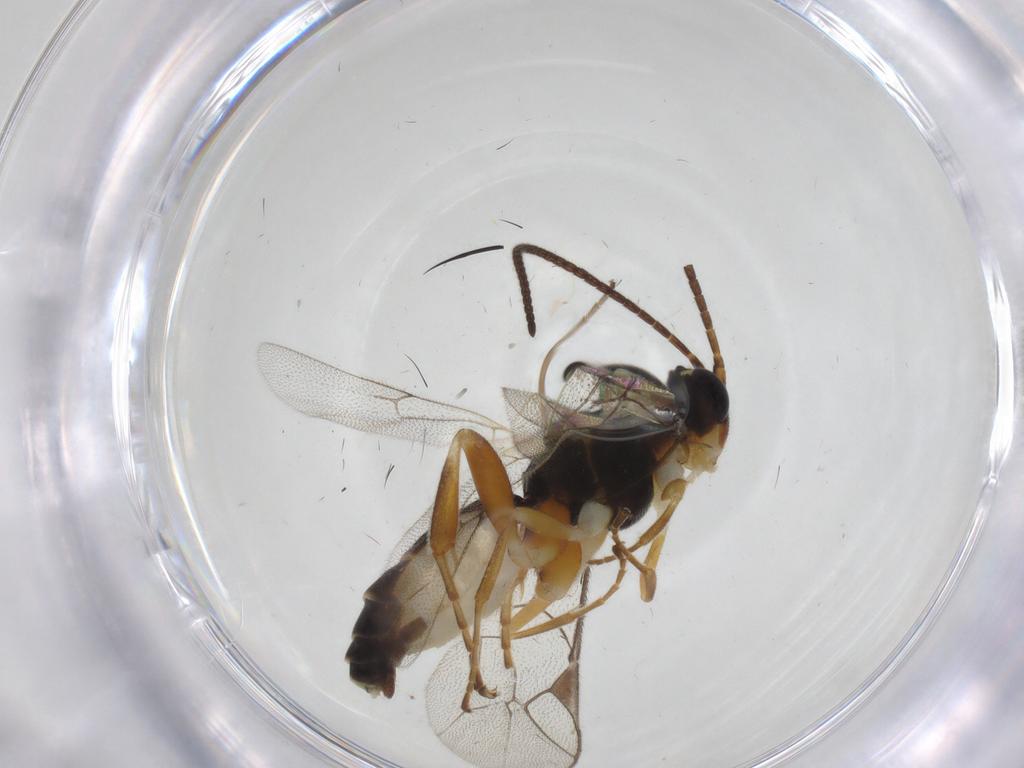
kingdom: Animalia
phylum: Arthropoda
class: Insecta
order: Hymenoptera
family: Ichneumonidae
